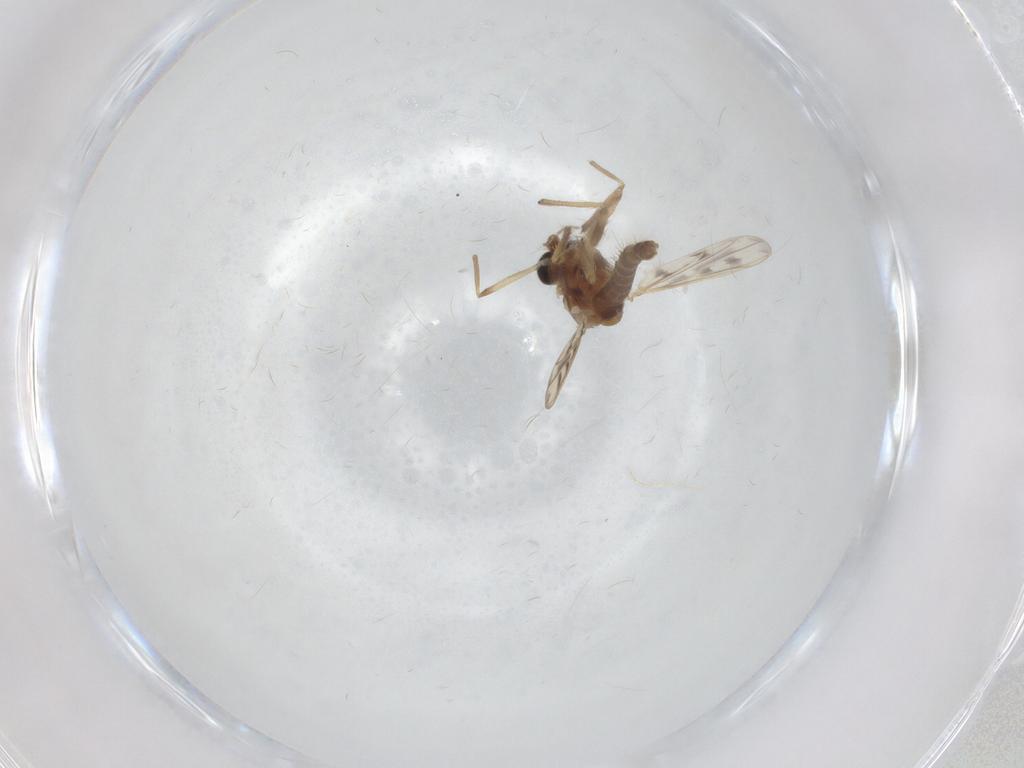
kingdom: Animalia
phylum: Arthropoda
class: Insecta
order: Diptera
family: Chironomidae
